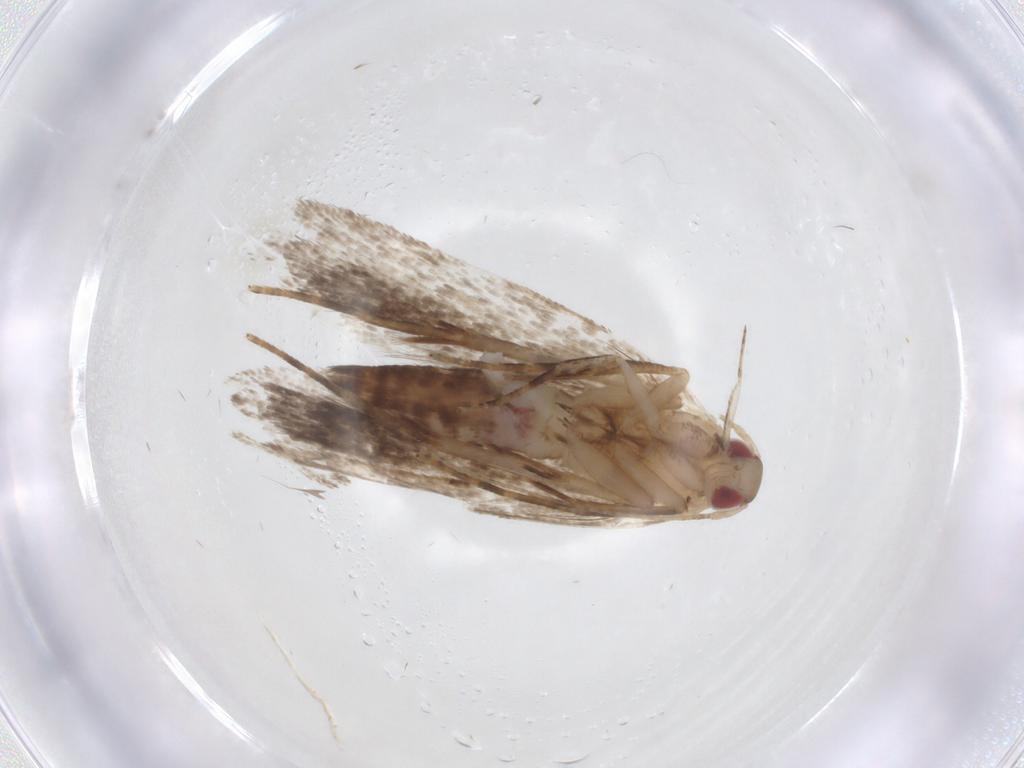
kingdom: Animalia
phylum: Arthropoda
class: Insecta
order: Lepidoptera
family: Crambidae
